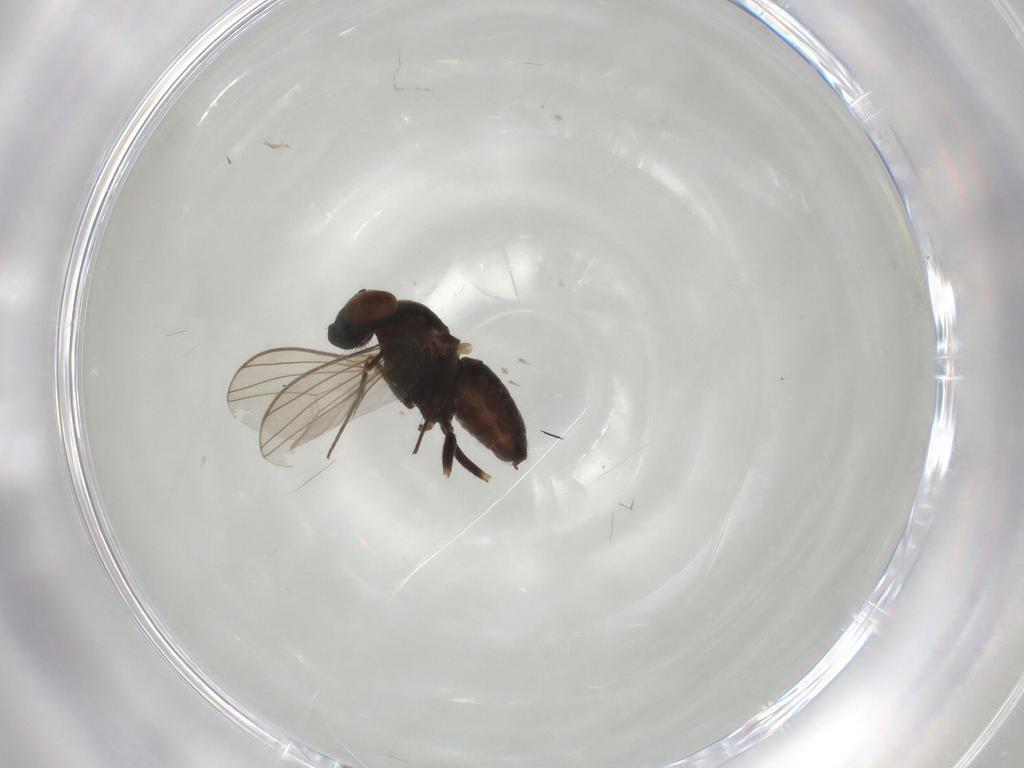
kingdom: Animalia
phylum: Arthropoda
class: Insecta
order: Diptera
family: Dolichopodidae
